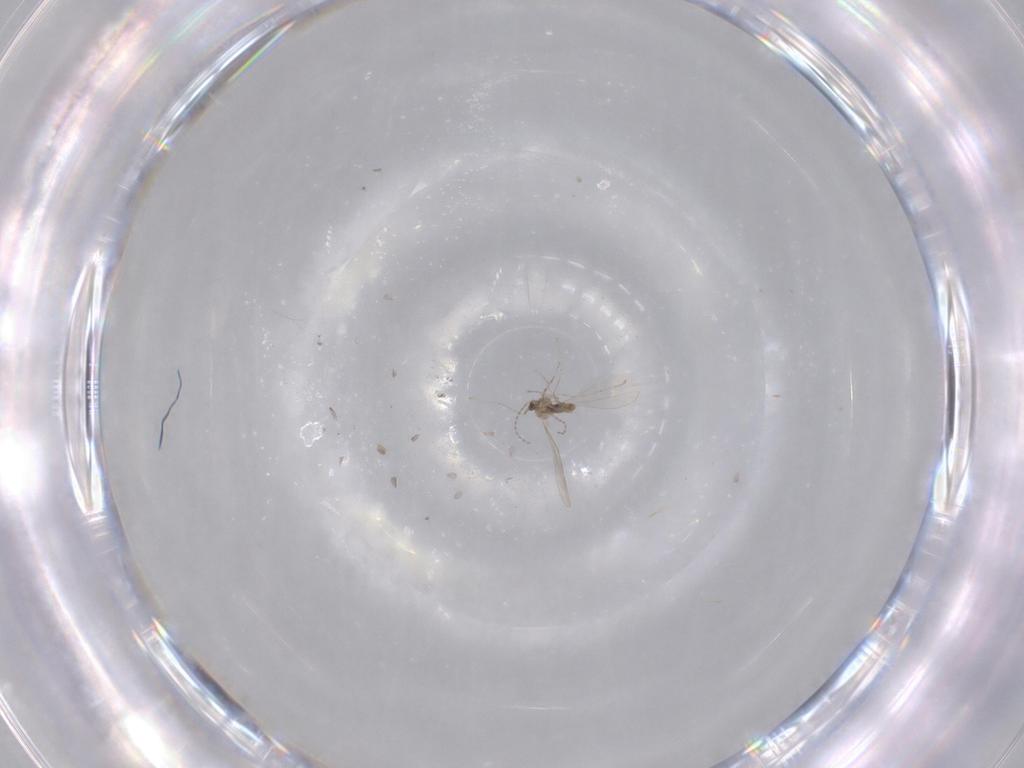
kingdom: Animalia
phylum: Arthropoda
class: Insecta
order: Diptera
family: Cecidomyiidae
